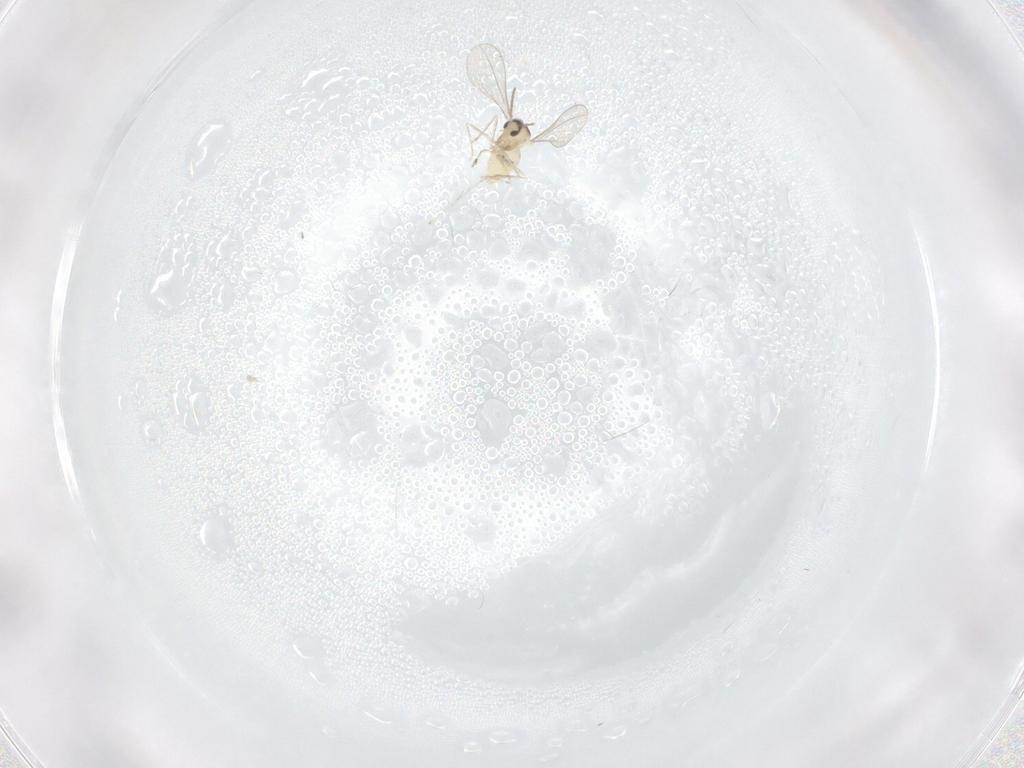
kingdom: Animalia
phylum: Arthropoda
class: Insecta
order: Diptera
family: Cecidomyiidae
